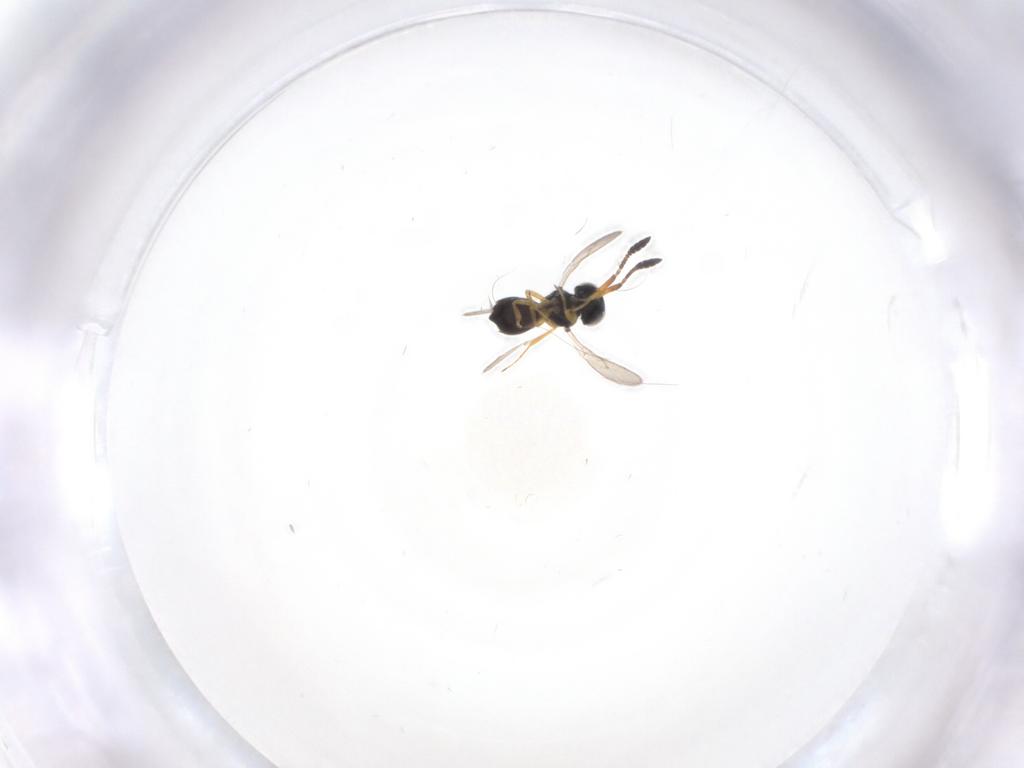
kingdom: Animalia
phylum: Arthropoda
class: Insecta
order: Hymenoptera
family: Scelionidae
